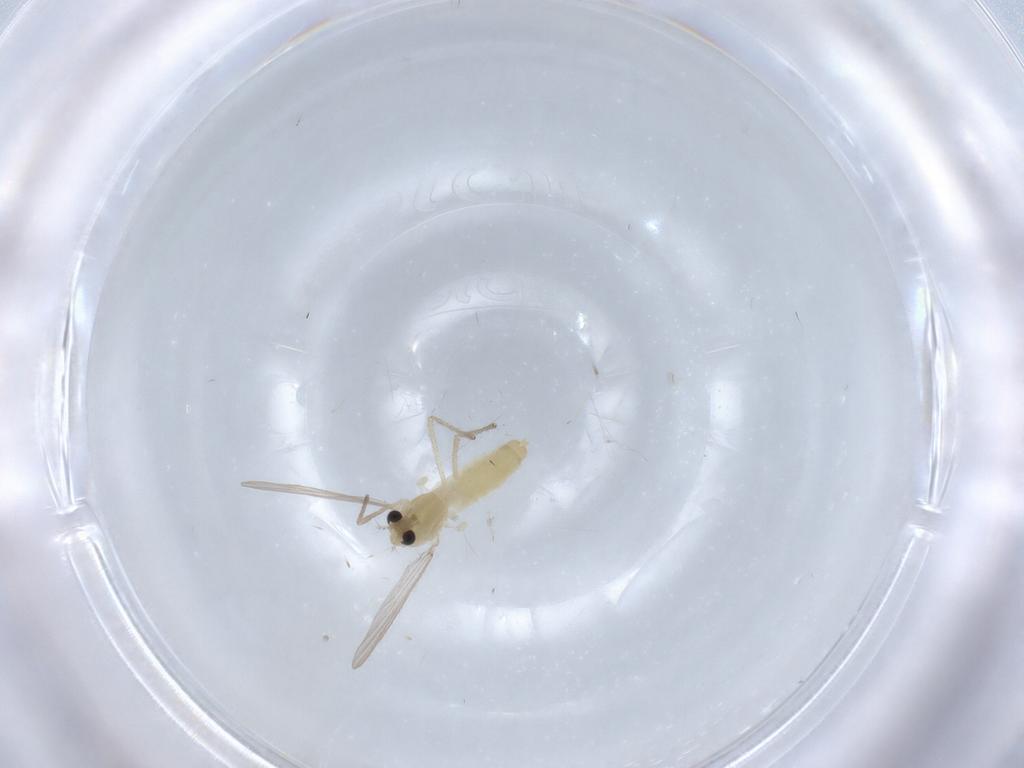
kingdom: Animalia
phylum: Arthropoda
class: Insecta
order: Diptera
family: Chironomidae
